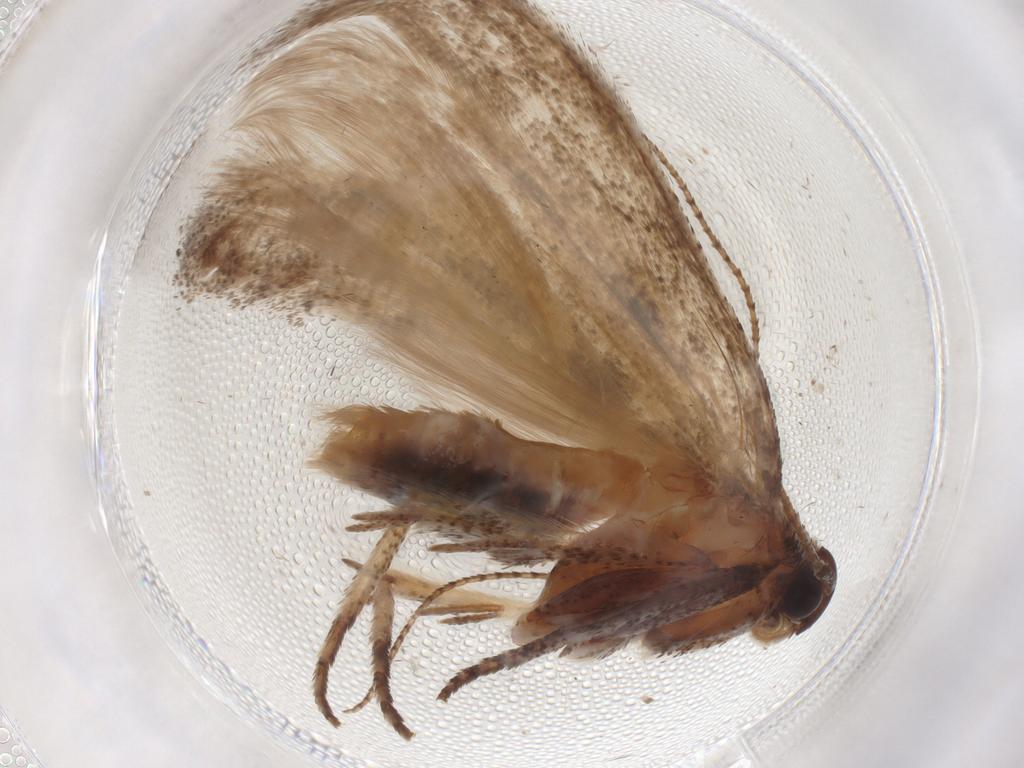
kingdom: Animalia
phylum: Arthropoda
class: Insecta
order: Lepidoptera
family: Cosmopterigidae
